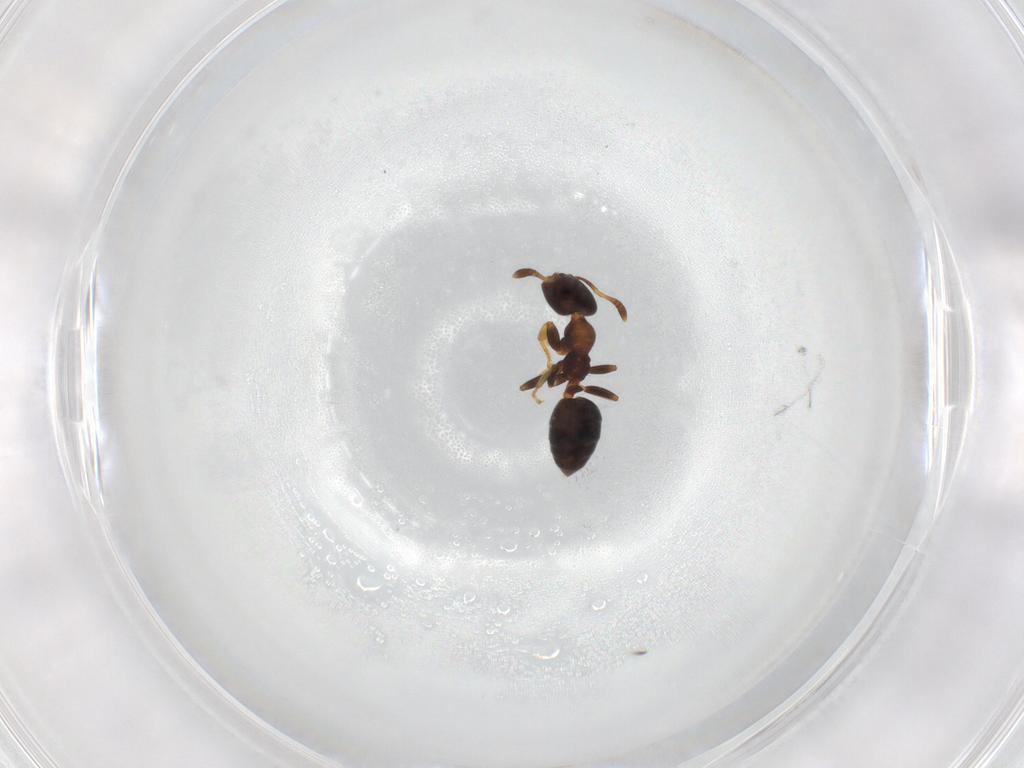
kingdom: Animalia
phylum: Arthropoda
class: Insecta
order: Hymenoptera
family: Formicidae
